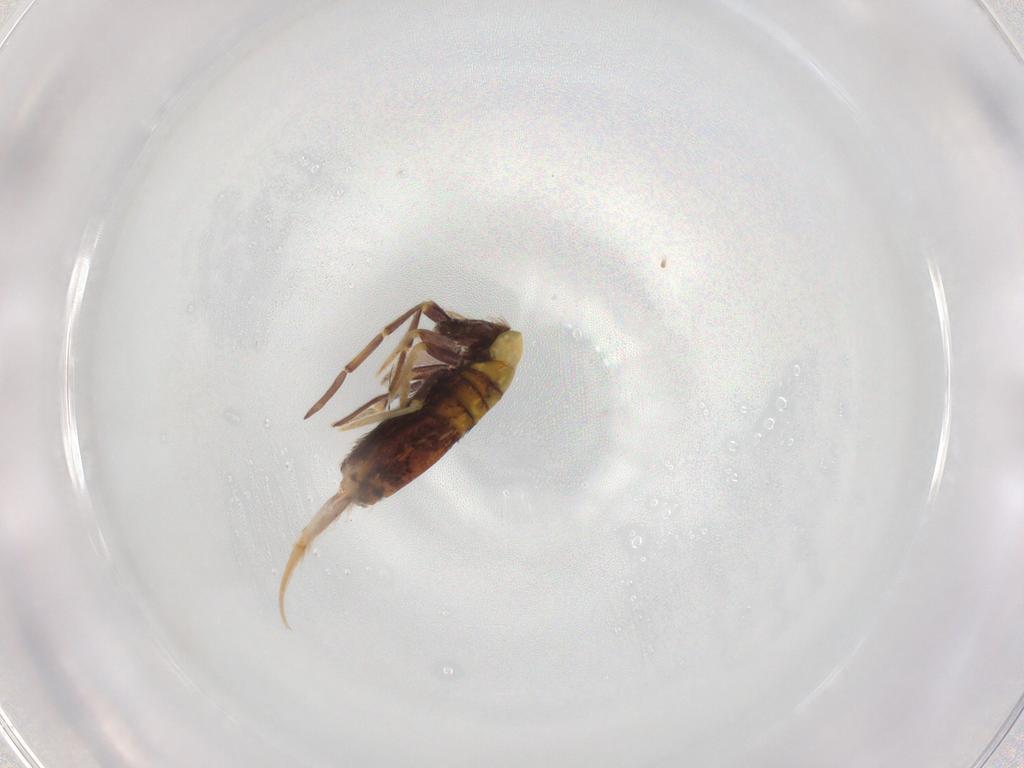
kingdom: Animalia
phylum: Arthropoda
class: Collembola
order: Entomobryomorpha
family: Entomobryidae
